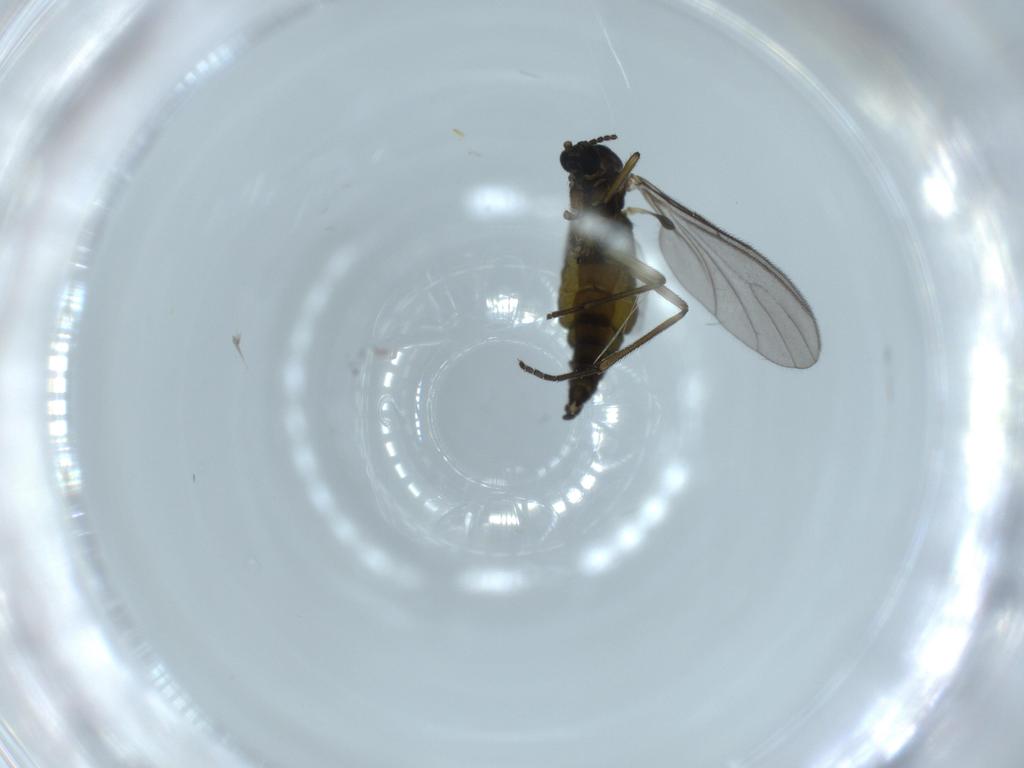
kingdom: Animalia
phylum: Arthropoda
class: Insecta
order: Diptera
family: Sciaridae
